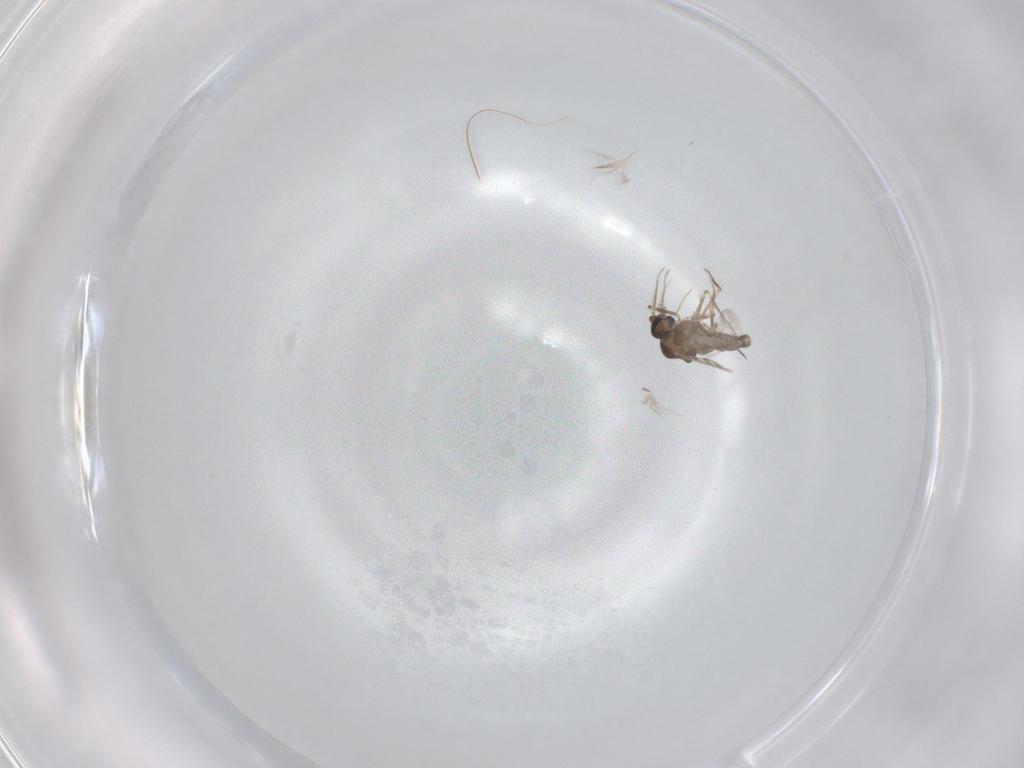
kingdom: Animalia
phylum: Arthropoda
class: Insecta
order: Diptera
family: Ceratopogonidae
